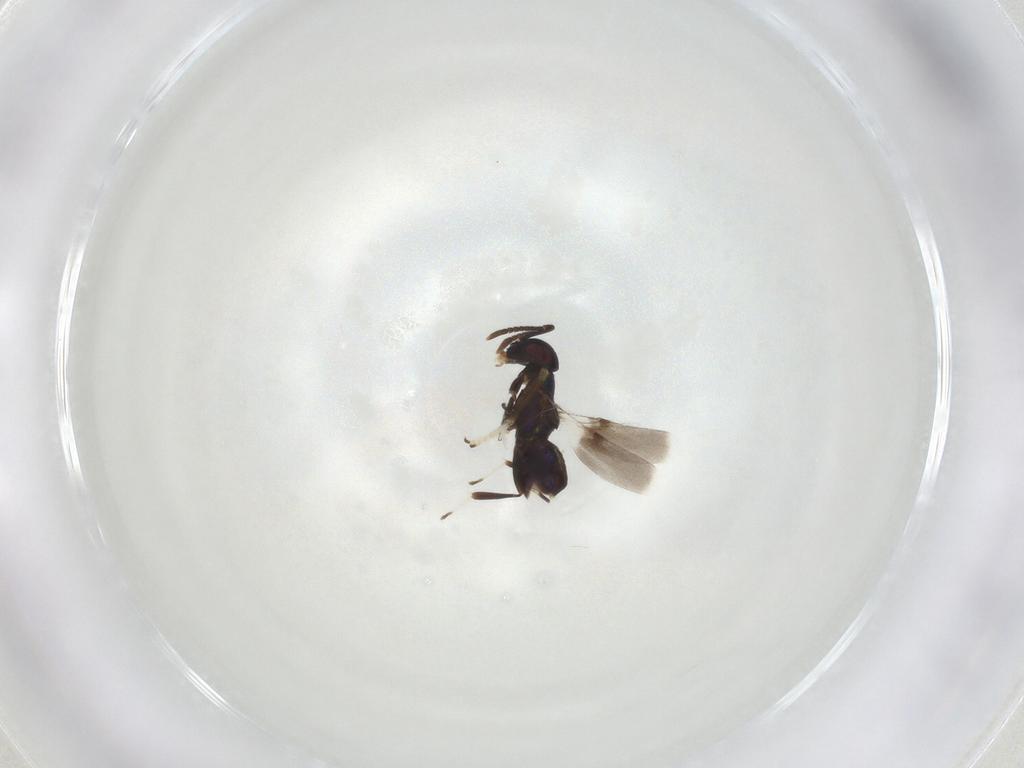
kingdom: Animalia
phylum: Arthropoda
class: Insecta
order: Hymenoptera
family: Encyrtidae
